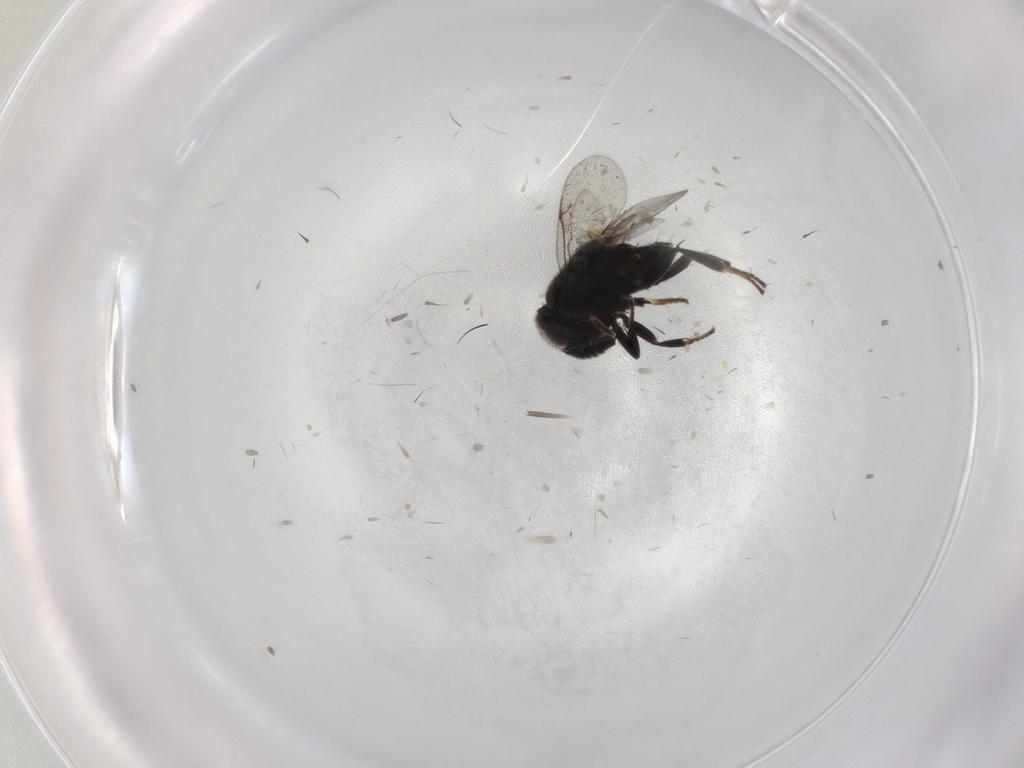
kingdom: Animalia
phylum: Arthropoda
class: Insecta
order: Hymenoptera
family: Encyrtidae
